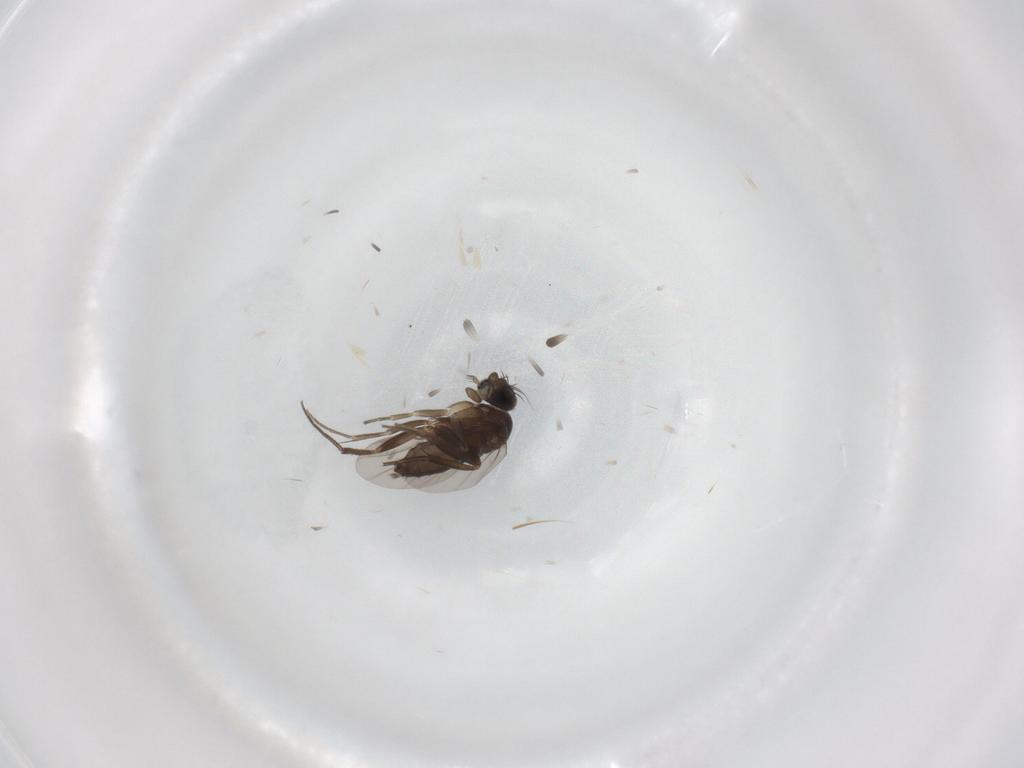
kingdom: Animalia
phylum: Arthropoda
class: Insecta
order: Diptera
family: Phoridae
